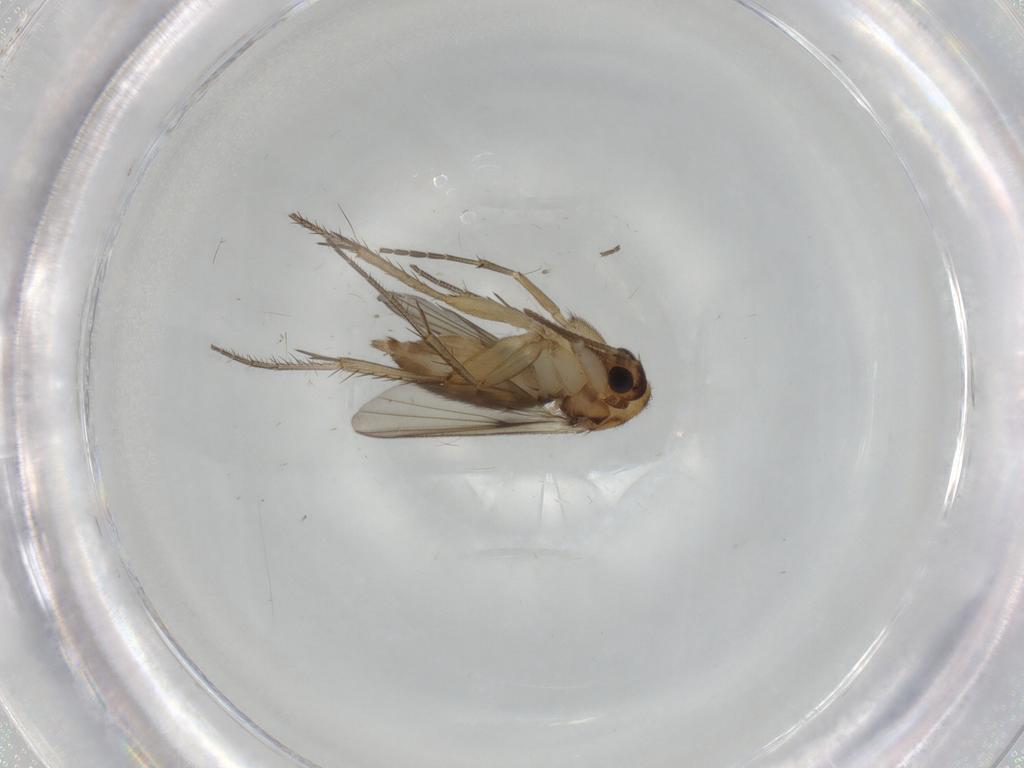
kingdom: Animalia
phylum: Arthropoda
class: Insecta
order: Diptera
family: Mycetophilidae
